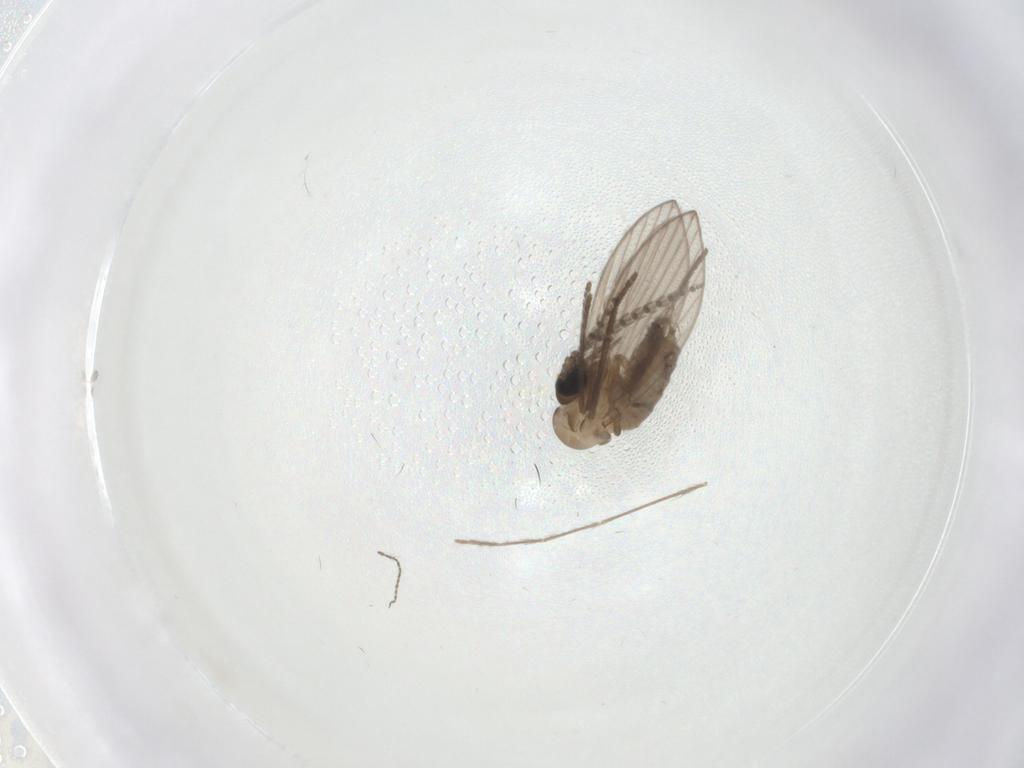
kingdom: Animalia
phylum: Arthropoda
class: Insecta
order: Diptera
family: Psychodidae
